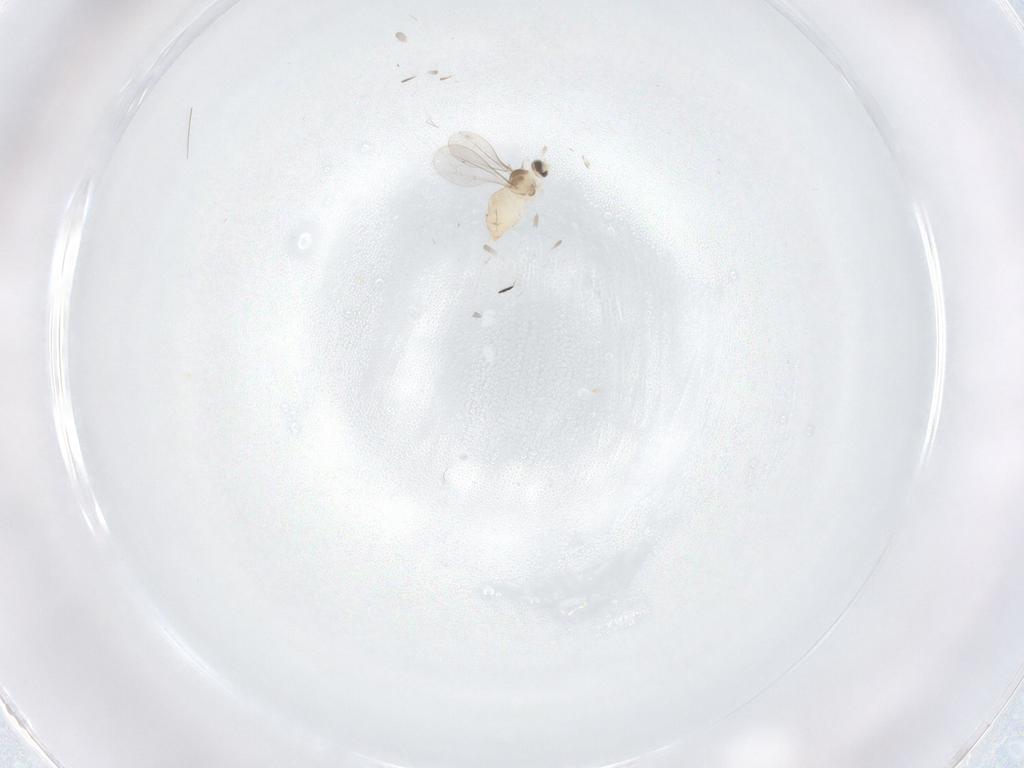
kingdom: Animalia
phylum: Arthropoda
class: Insecta
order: Diptera
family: Cecidomyiidae
